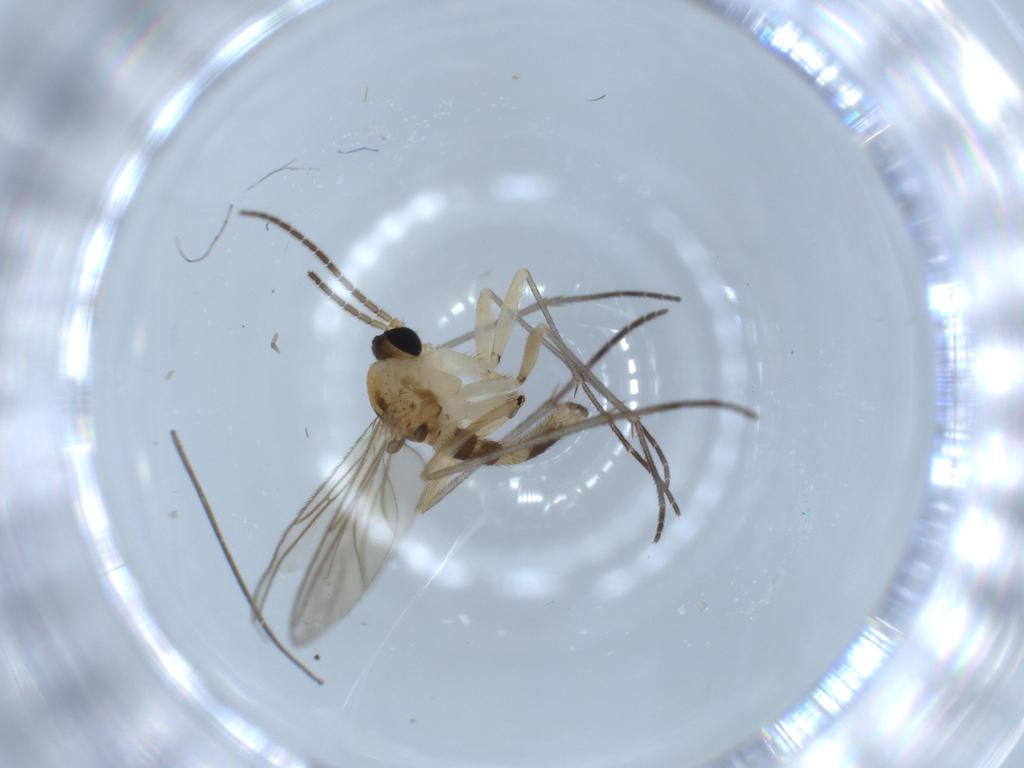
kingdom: Animalia
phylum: Arthropoda
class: Insecta
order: Diptera
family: Sciaridae
